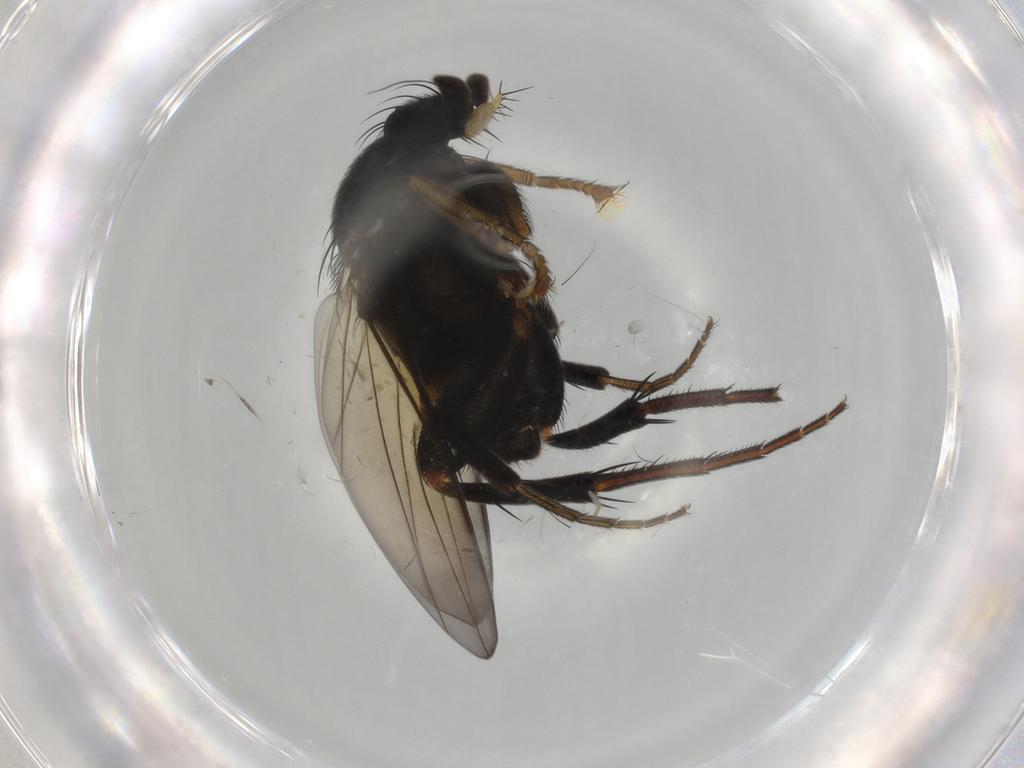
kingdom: Animalia
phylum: Arthropoda
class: Insecta
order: Diptera
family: Phoridae
